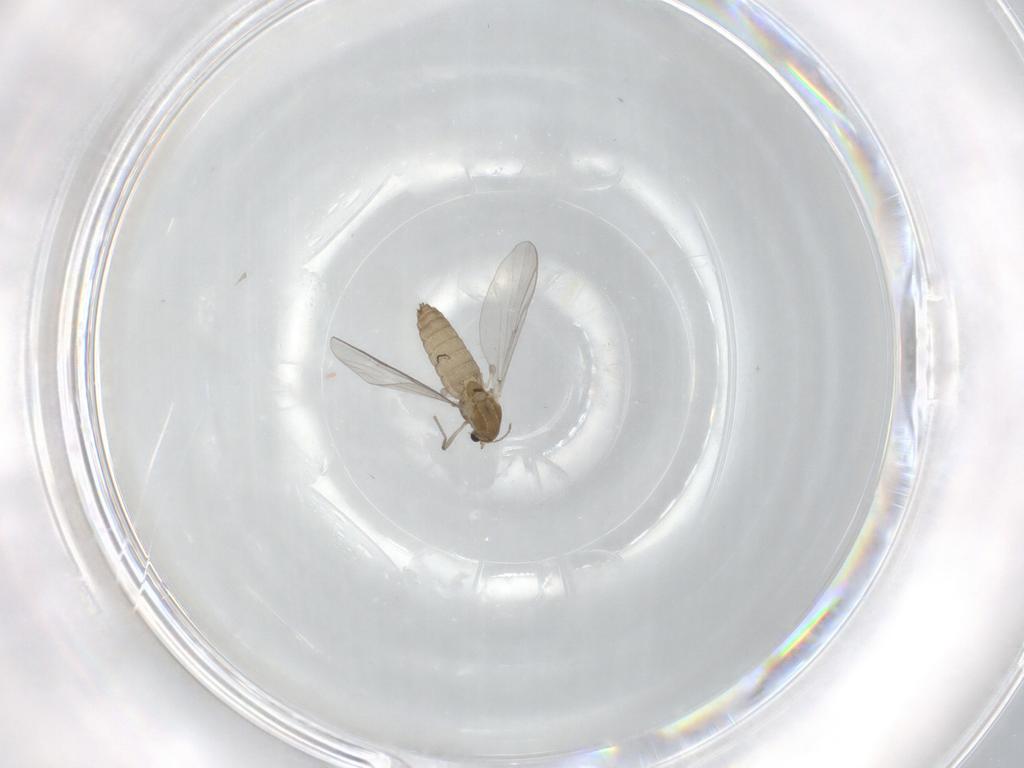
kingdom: Animalia
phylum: Arthropoda
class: Insecta
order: Diptera
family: Chironomidae
